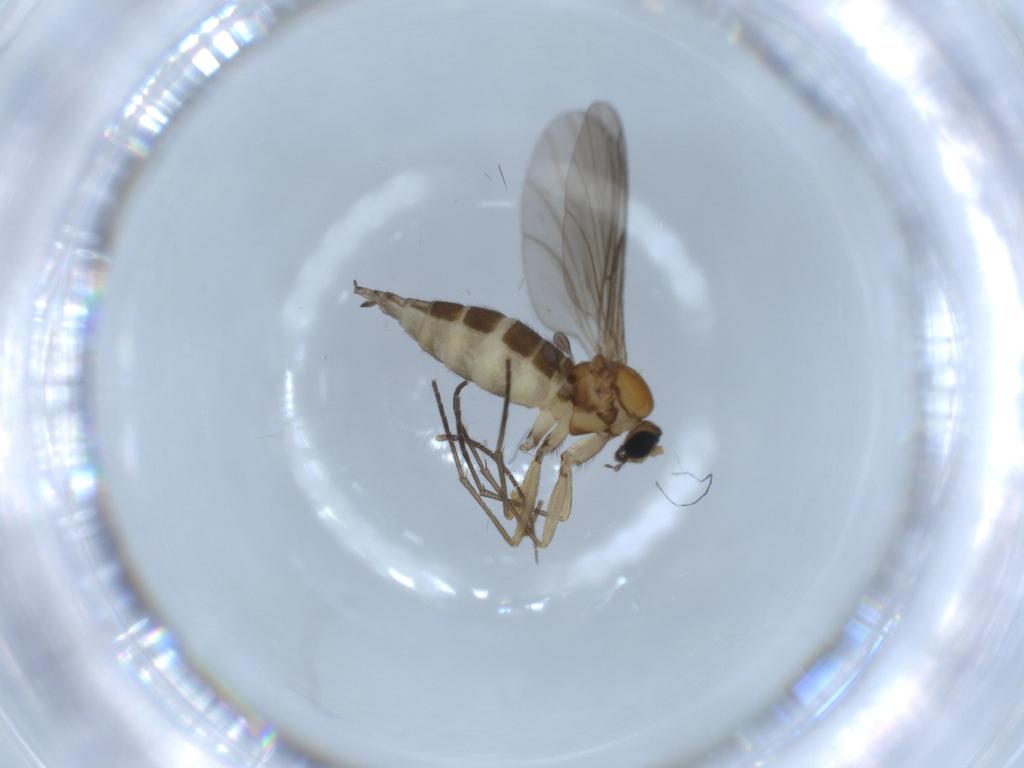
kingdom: Animalia
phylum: Arthropoda
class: Insecta
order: Diptera
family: Sciaridae
